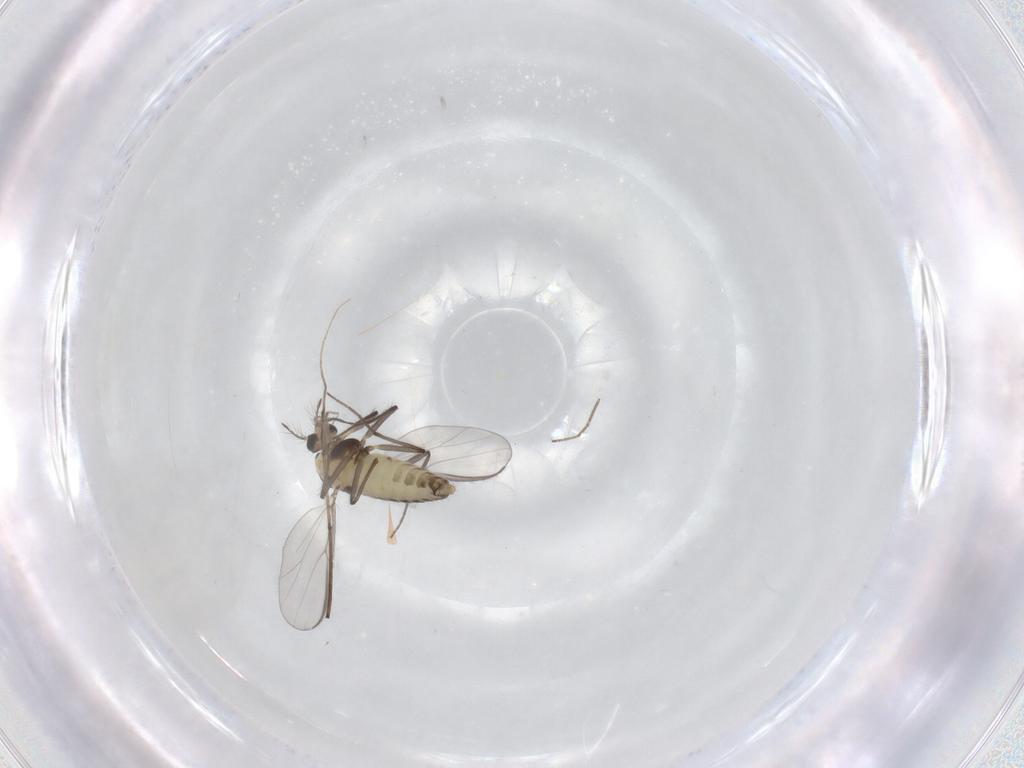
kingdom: Animalia
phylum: Arthropoda
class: Insecta
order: Diptera
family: Chironomidae
